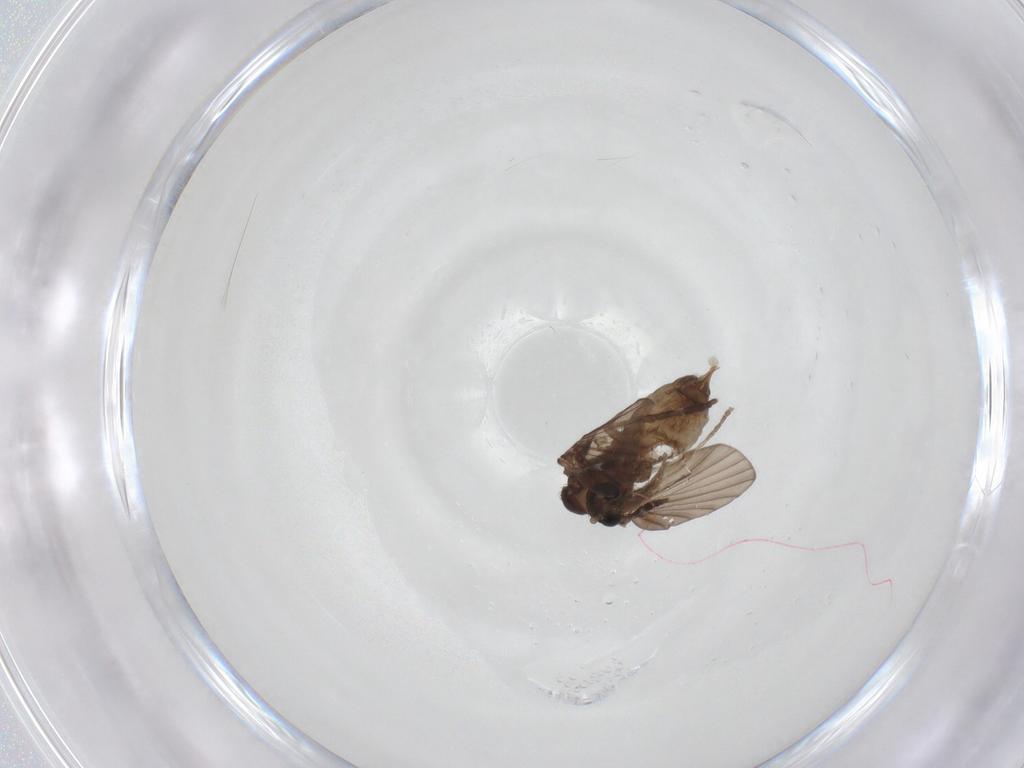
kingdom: Animalia
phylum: Arthropoda
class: Insecta
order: Diptera
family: Psychodidae
